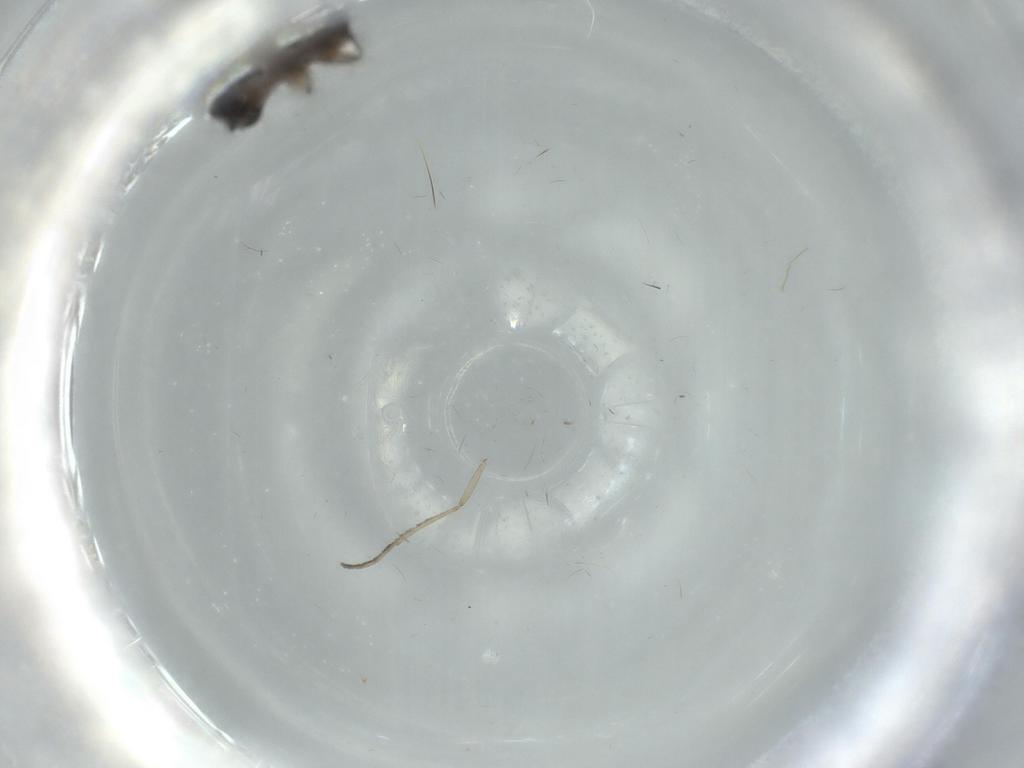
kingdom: Animalia
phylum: Arthropoda
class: Insecta
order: Diptera
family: Phoridae
